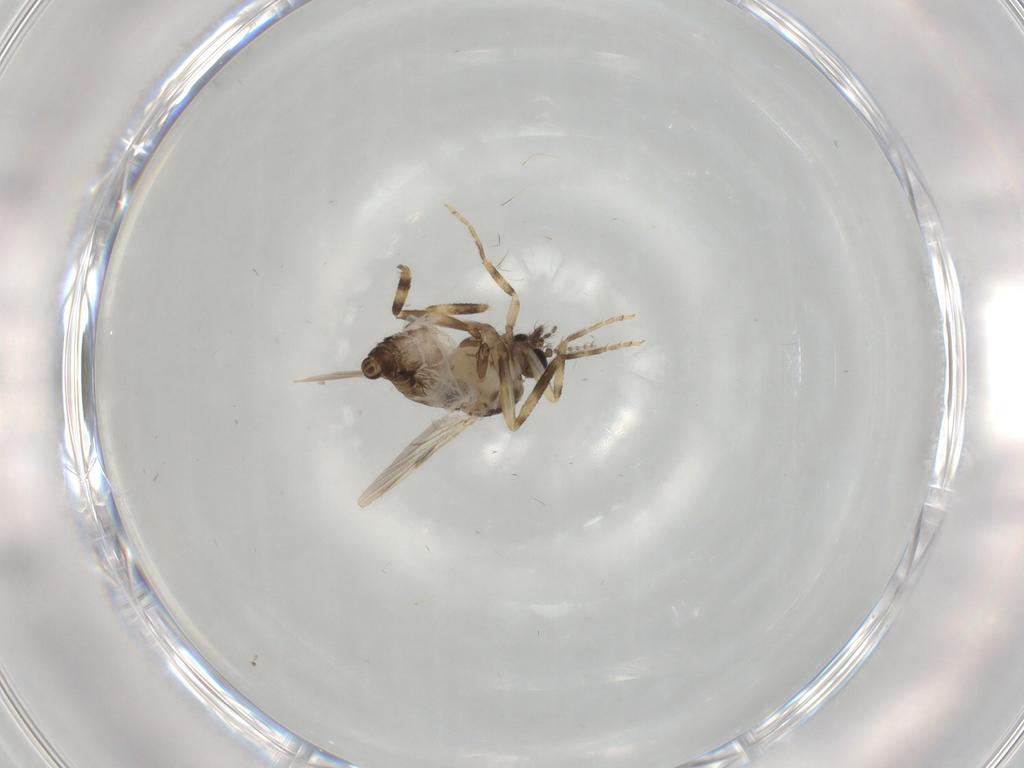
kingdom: Animalia
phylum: Arthropoda
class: Insecta
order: Diptera
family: Ceratopogonidae
